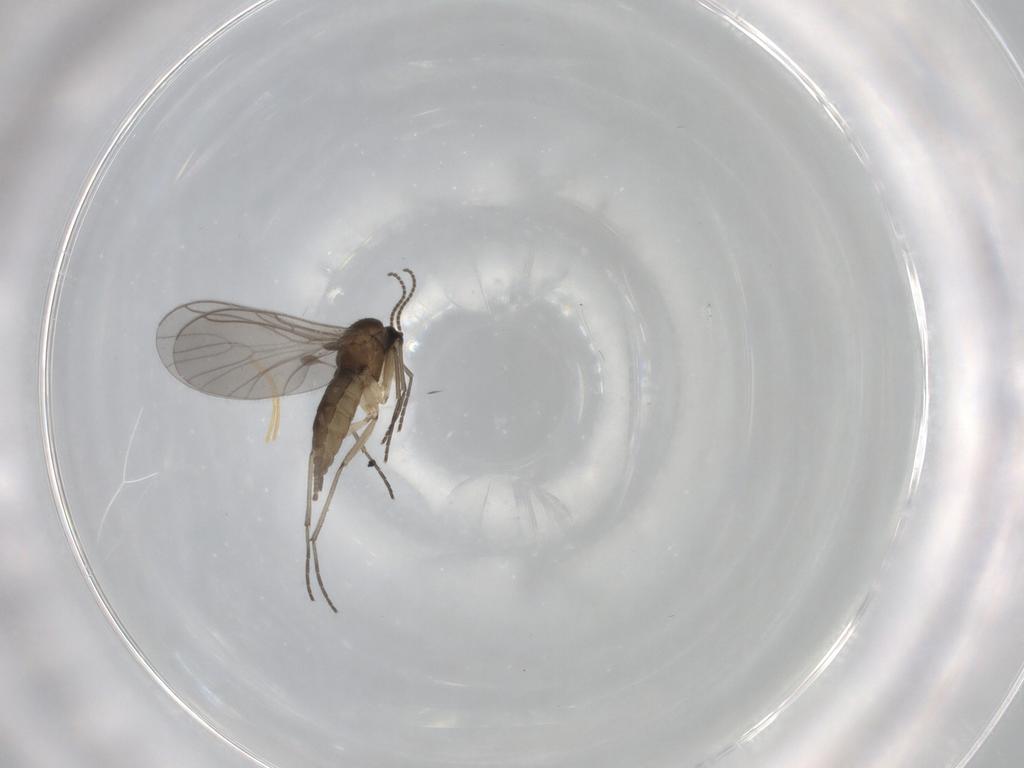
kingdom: Animalia
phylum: Arthropoda
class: Insecta
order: Diptera
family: Sciaridae
